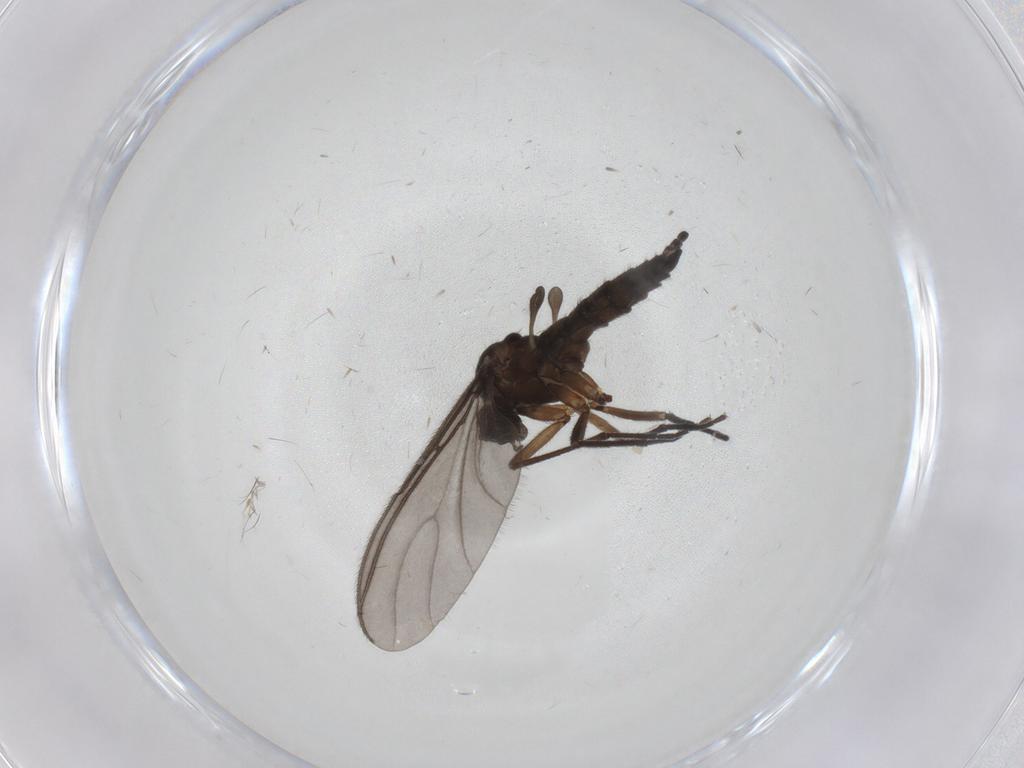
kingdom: Animalia
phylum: Arthropoda
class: Insecta
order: Diptera
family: Sciaridae
